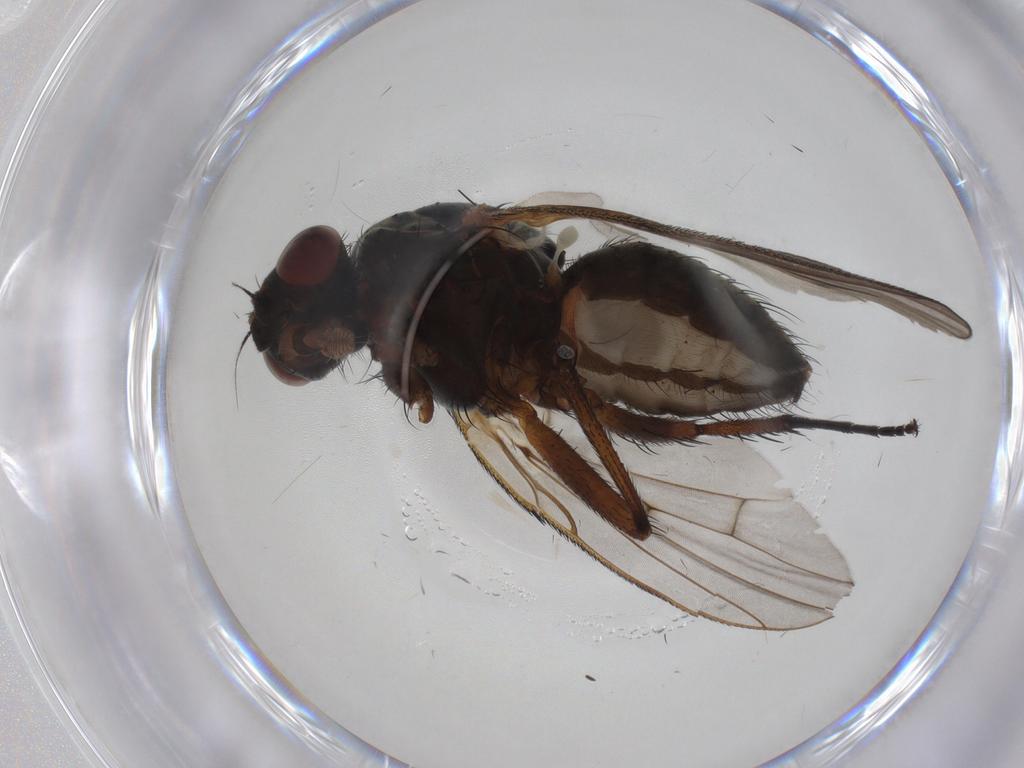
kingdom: Animalia
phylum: Arthropoda
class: Insecta
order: Diptera
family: Anthomyiidae
